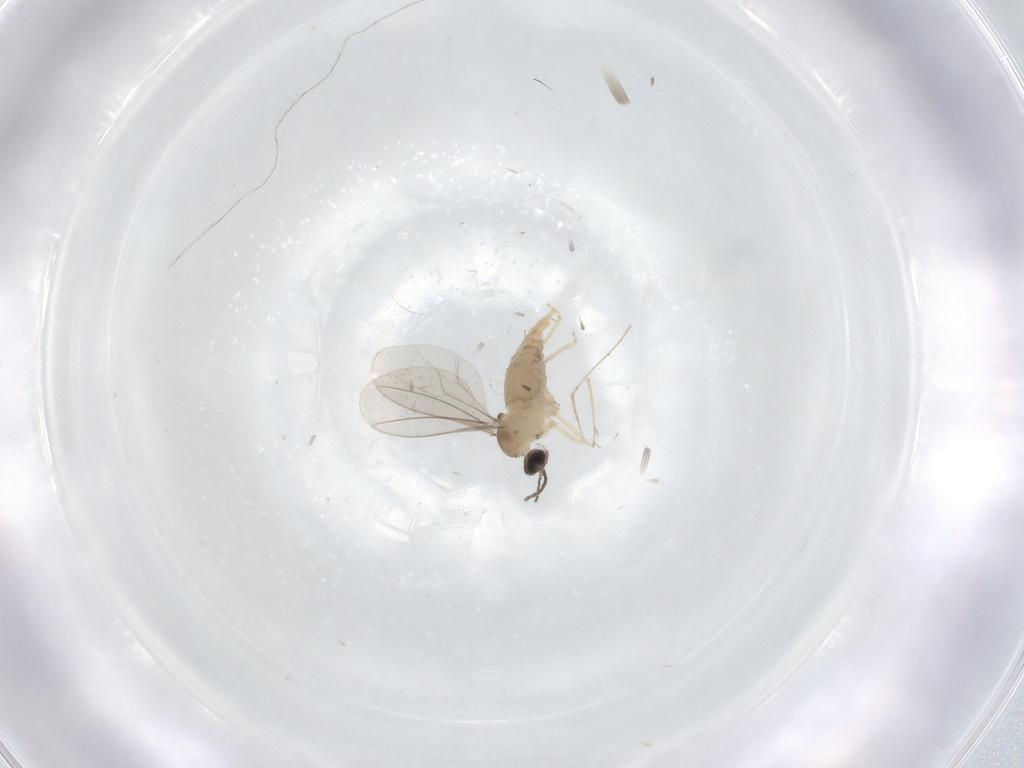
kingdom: Animalia
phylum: Arthropoda
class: Insecta
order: Diptera
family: Cecidomyiidae
